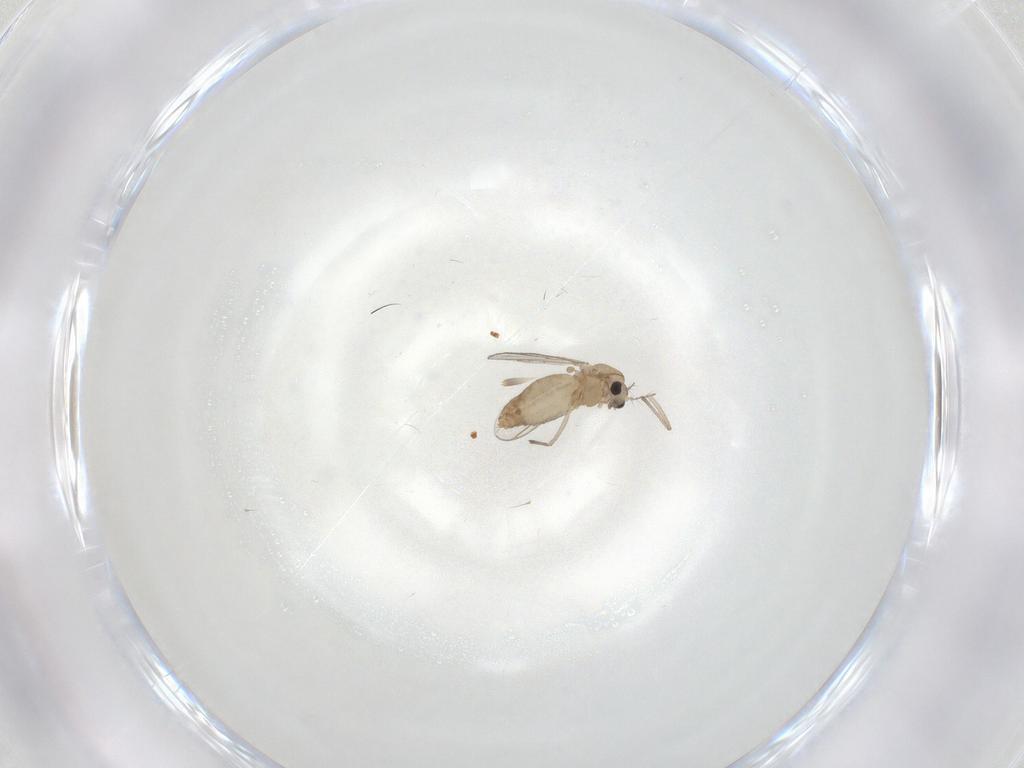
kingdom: Animalia
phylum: Arthropoda
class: Insecta
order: Diptera
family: Chironomidae
